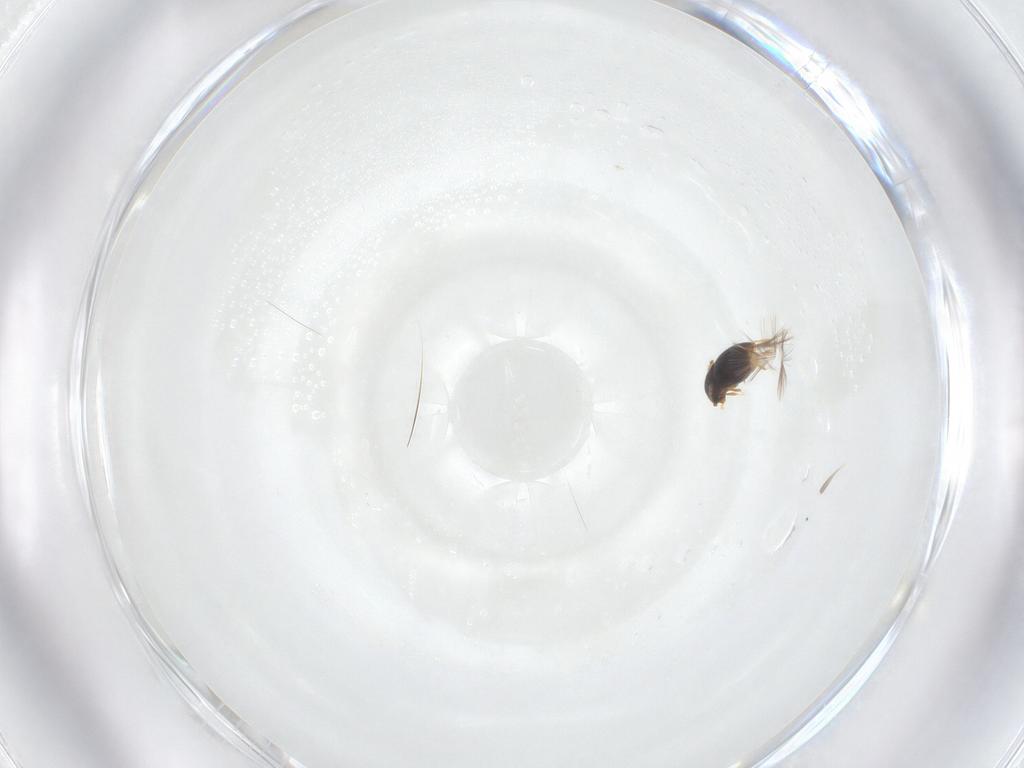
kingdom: Animalia
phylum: Arthropoda
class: Insecta
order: Coleoptera
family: Ptiliidae
